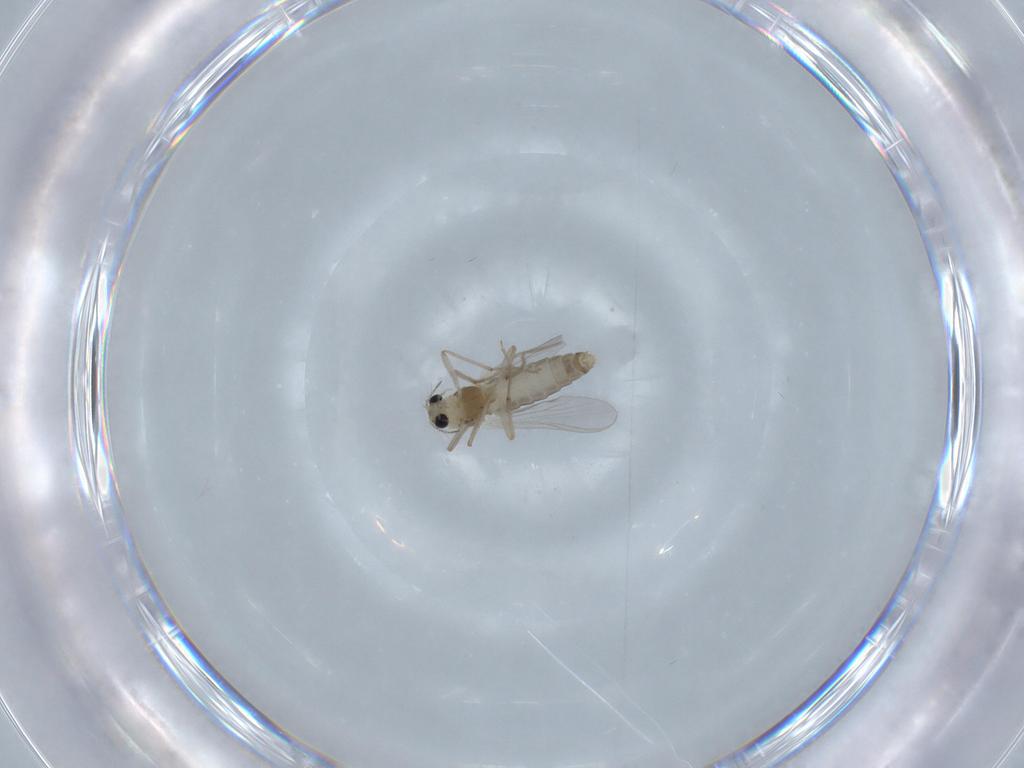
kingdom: Animalia
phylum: Arthropoda
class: Insecta
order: Diptera
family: Chironomidae
